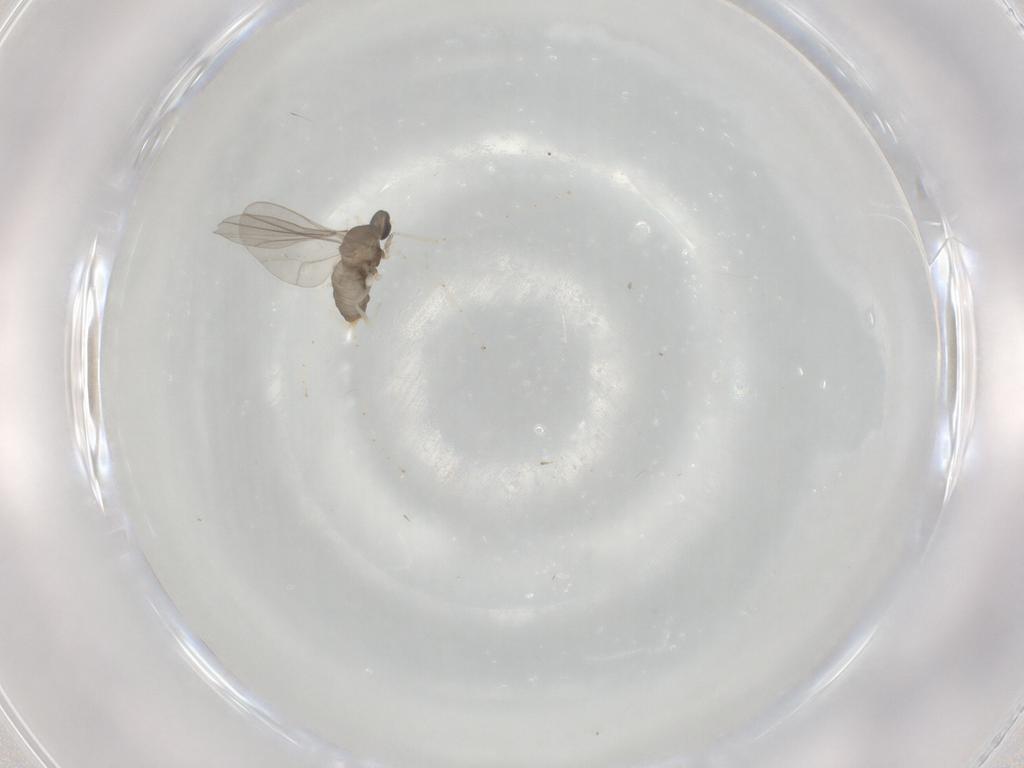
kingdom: Animalia
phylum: Arthropoda
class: Insecta
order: Diptera
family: Cecidomyiidae
